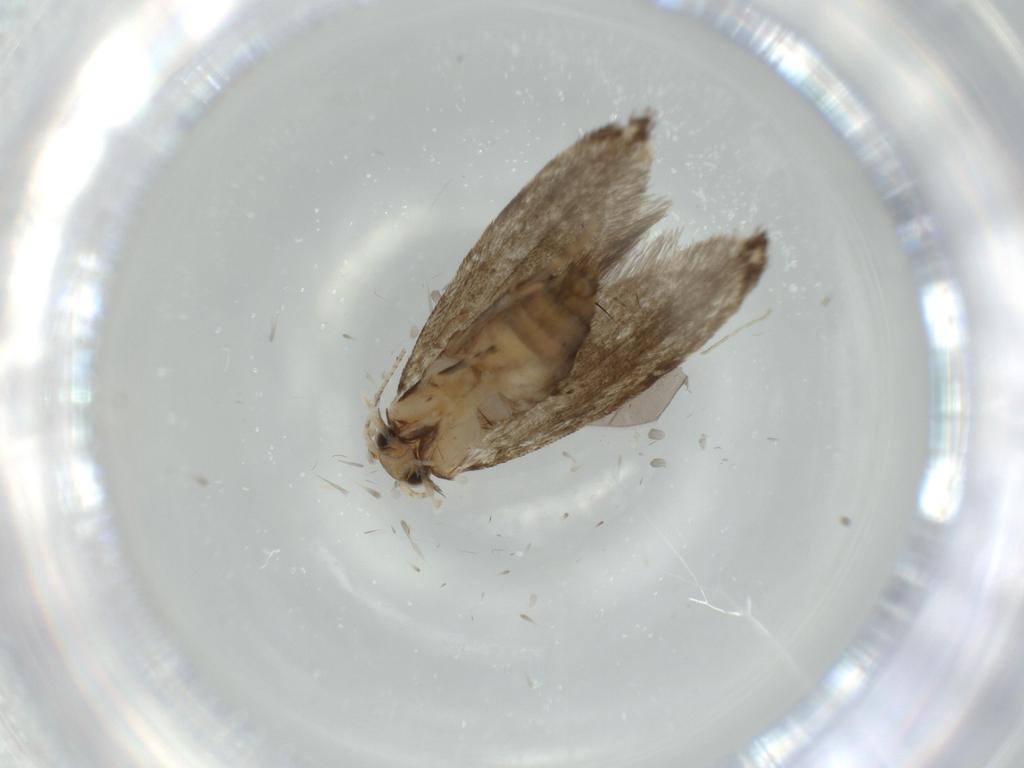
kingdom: Animalia
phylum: Arthropoda
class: Insecta
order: Lepidoptera
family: Tineidae
